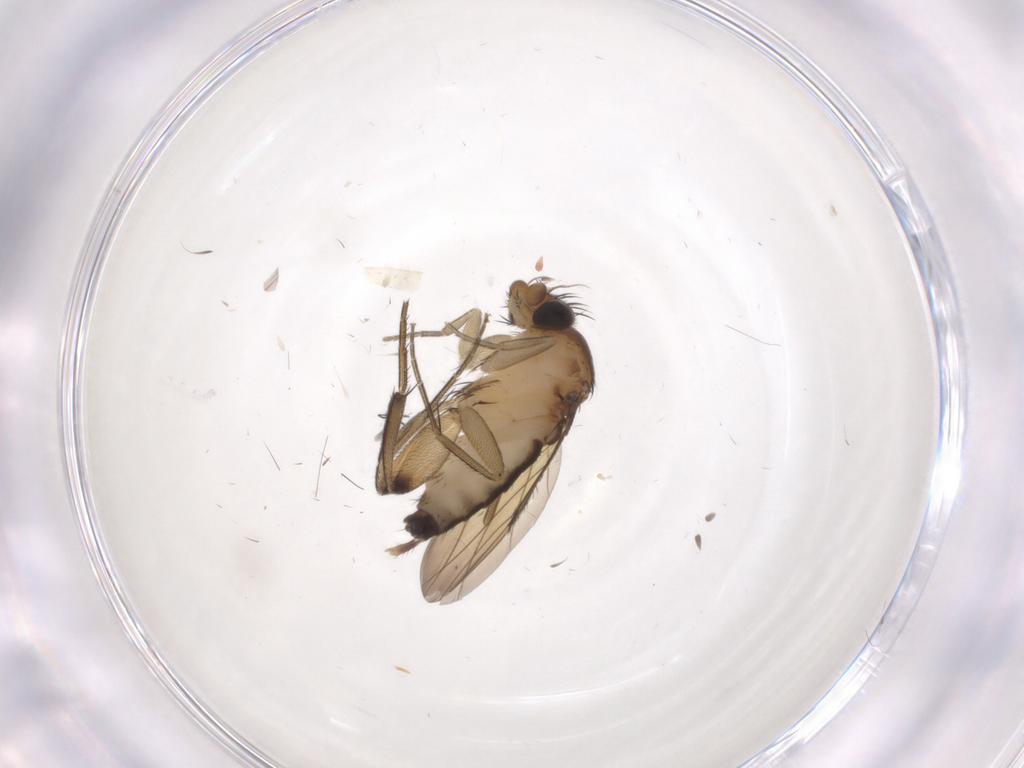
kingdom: Animalia
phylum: Arthropoda
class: Insecta
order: Diptera
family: Phoridae
